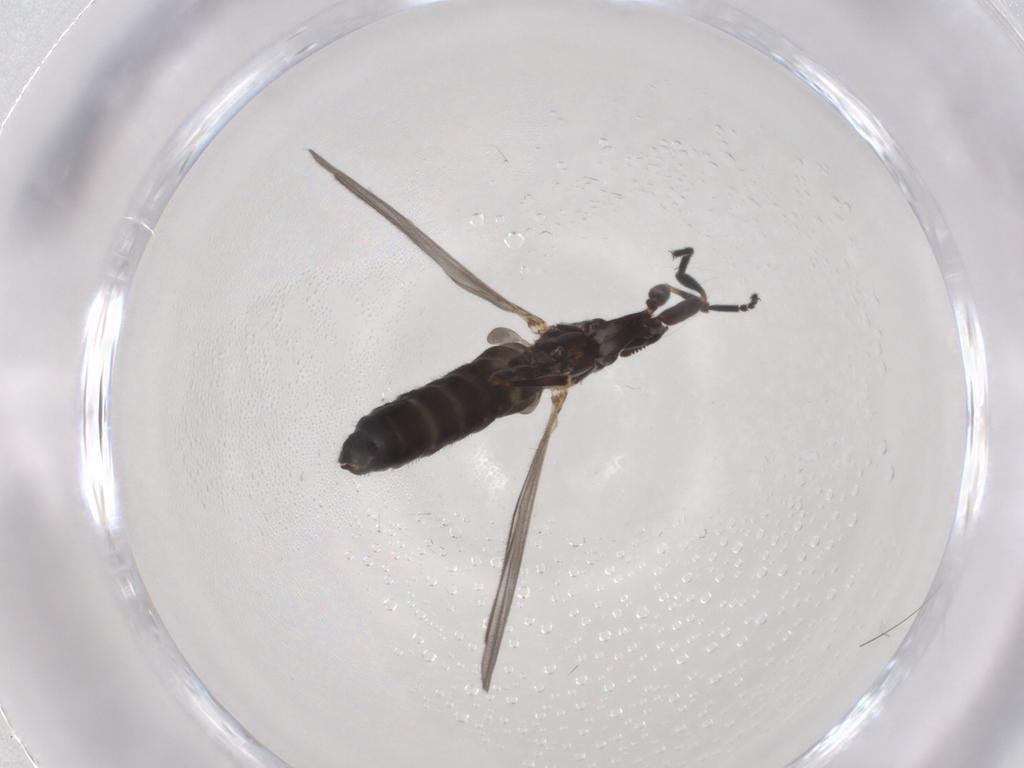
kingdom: Animalia
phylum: Arthropoda
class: Insecta
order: Diptera
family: Scatopsidae
